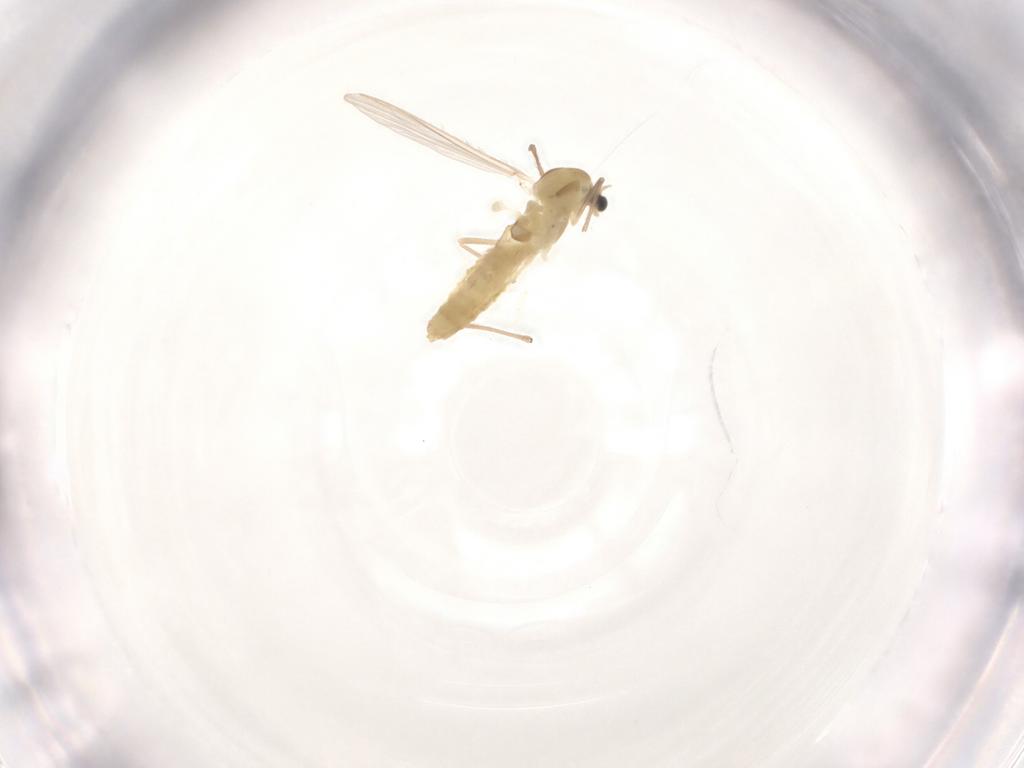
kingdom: Animalia
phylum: Arthropoda
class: Insecta
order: Diptera
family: Chironomidae
